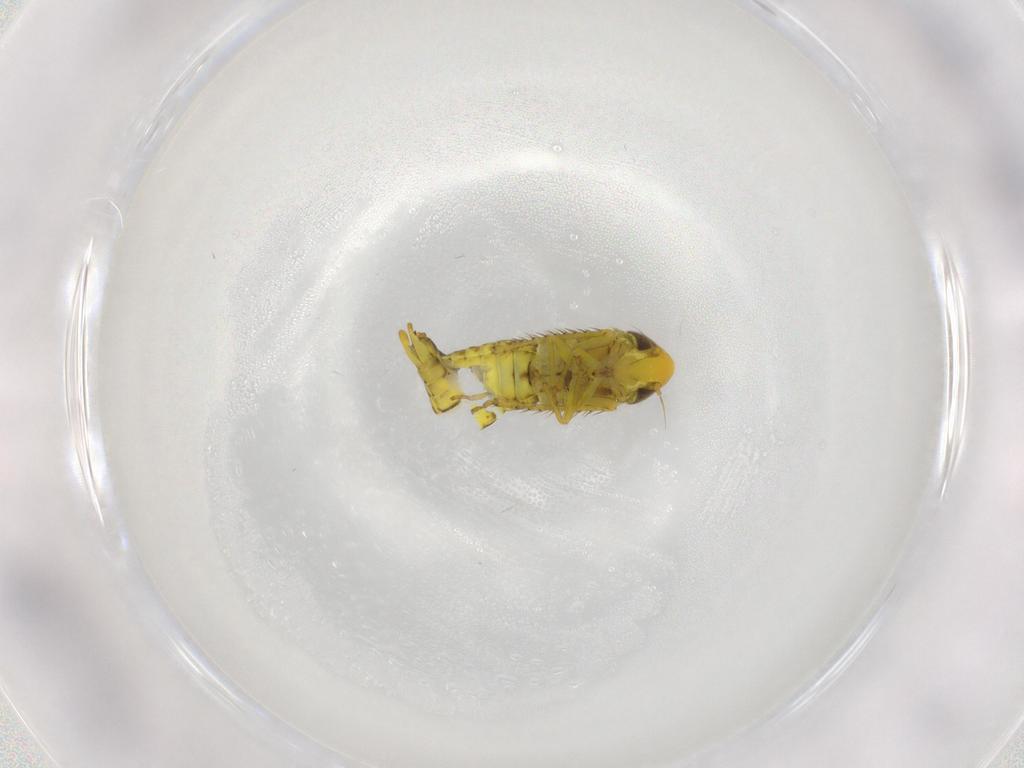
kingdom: Animalia
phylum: Arthropoda
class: Insecta
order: Hemiptera
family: Cicadellidae
